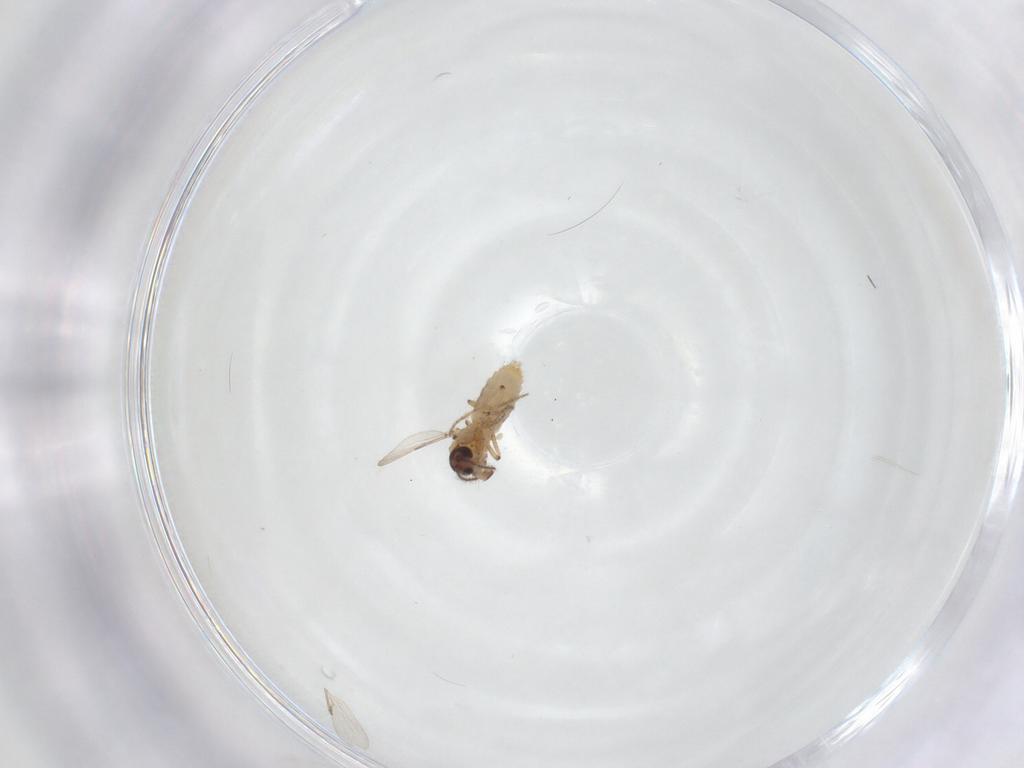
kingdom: Animalia
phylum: Arthropoda
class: Insecta
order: Diptera
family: Ceratopogonidae
